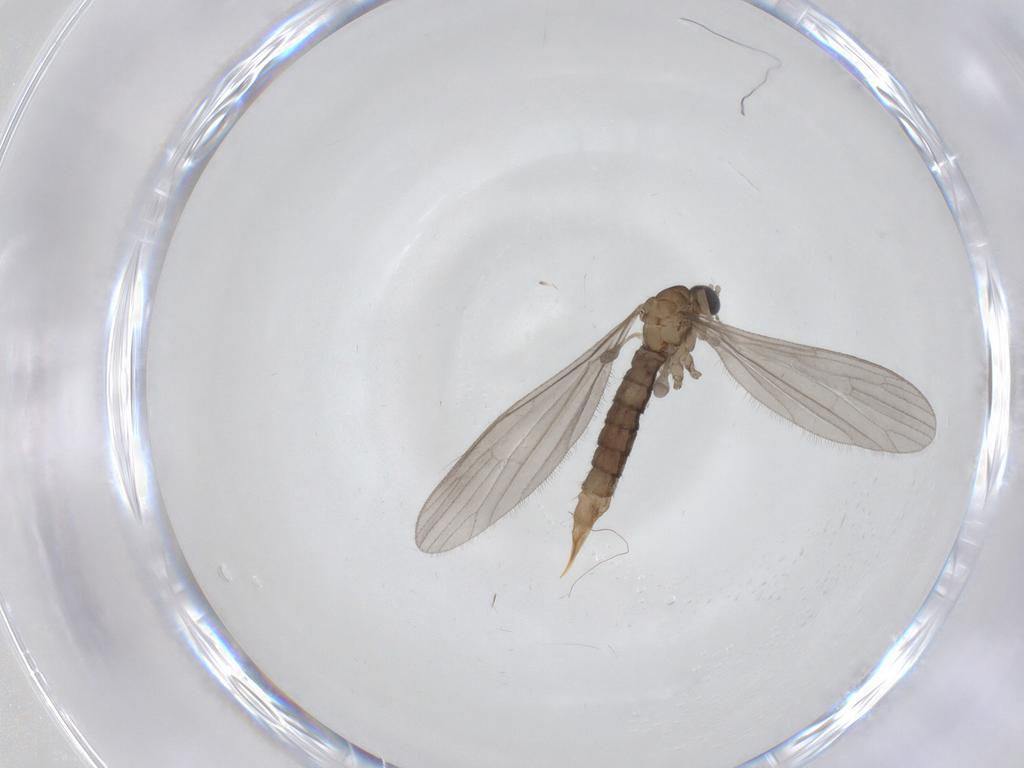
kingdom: Animalia
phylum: Arthropoda
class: Insecta
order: Diptera
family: Limoniidae
